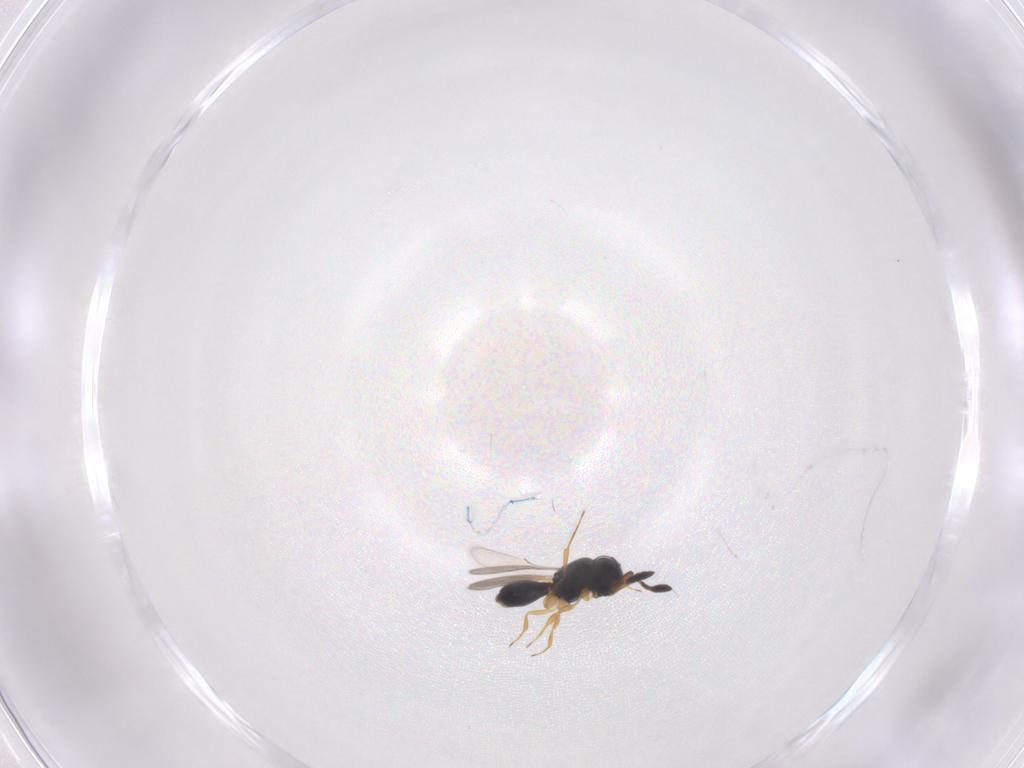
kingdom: Animalia
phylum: Arthropoda
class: Insecta
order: Hymenoptera
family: Scelionidae
